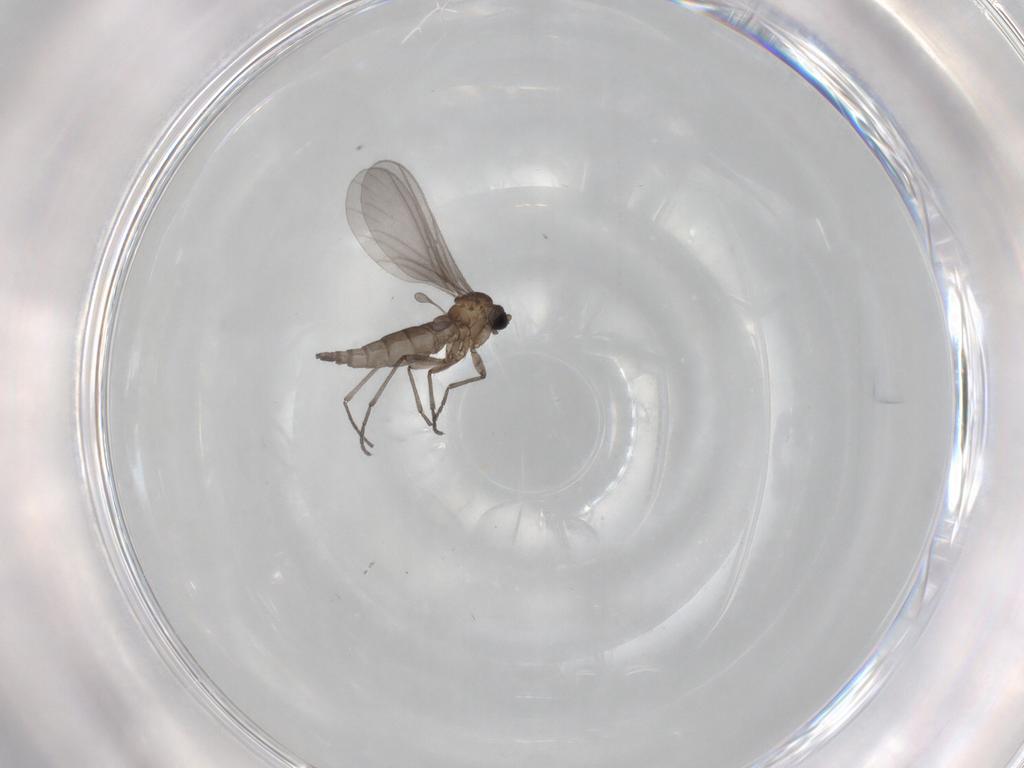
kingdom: Animalia
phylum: Arthropoda
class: Insecta
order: Diptera
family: Sciaridae
